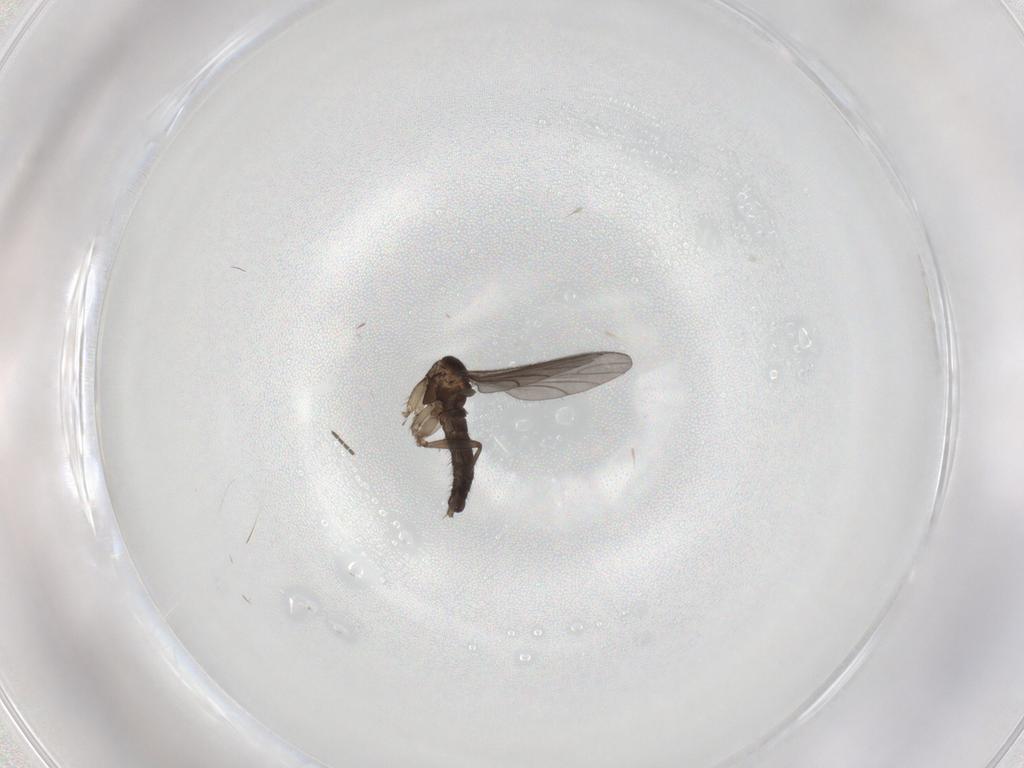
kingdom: Animalia
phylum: Arthropoda
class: Insecta
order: Diptera
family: Sciaridae
